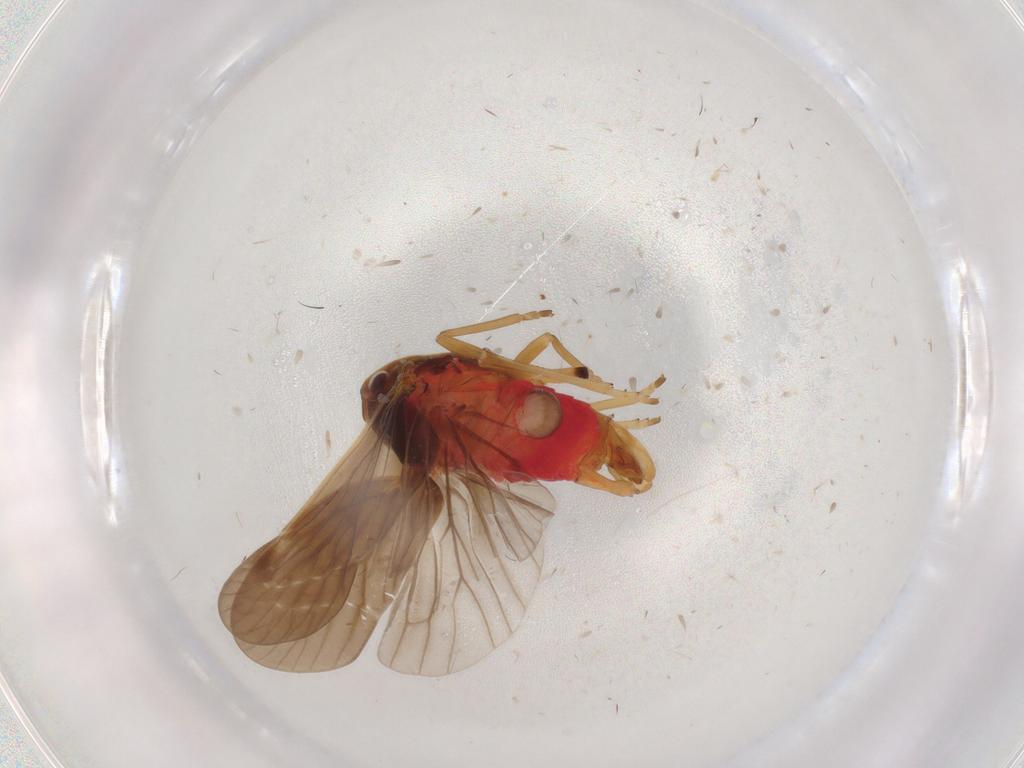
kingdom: Animalia
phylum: Arthropoda
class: Insecta
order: Hemiptera
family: Derbidae
